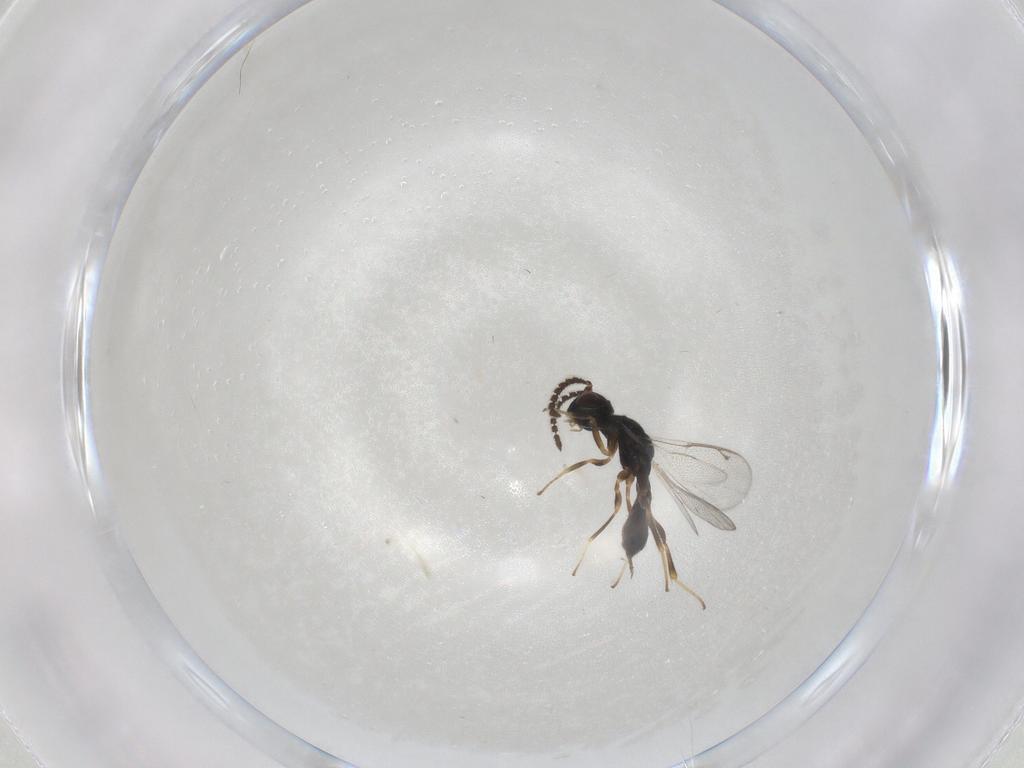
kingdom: Animalia
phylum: Arthropoda
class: Insecta
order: Hymenoptera
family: Cleonyminae
